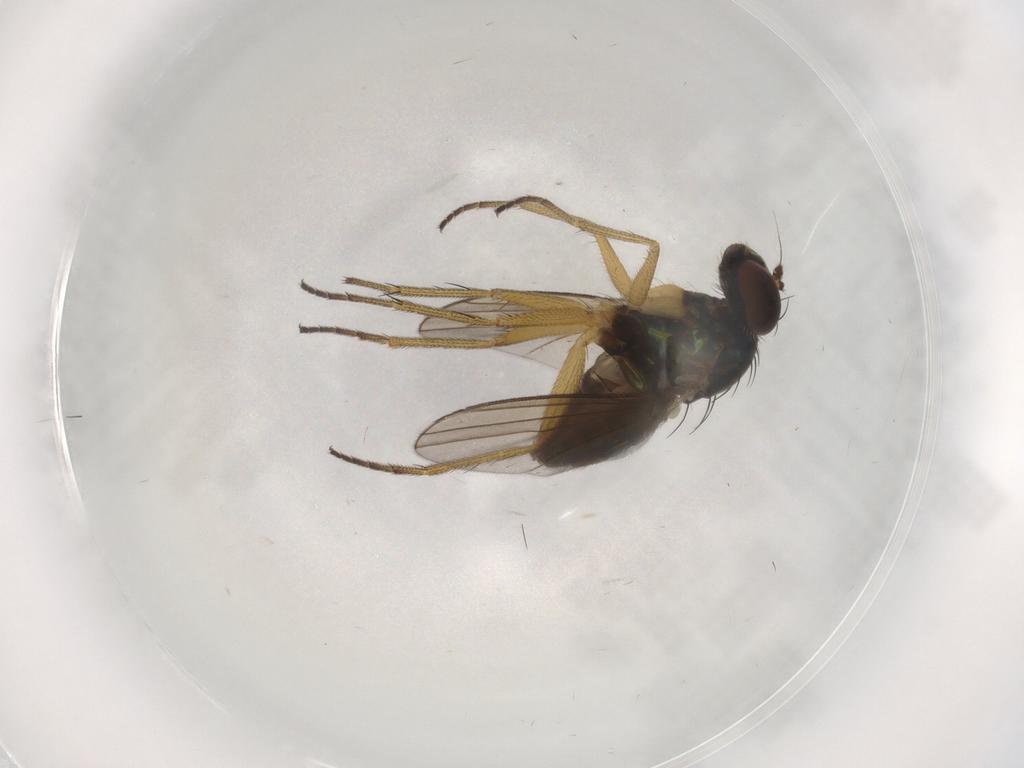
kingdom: Animalia
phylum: Arthropoda
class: Insecta
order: Diptera
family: Dolichopodidae
